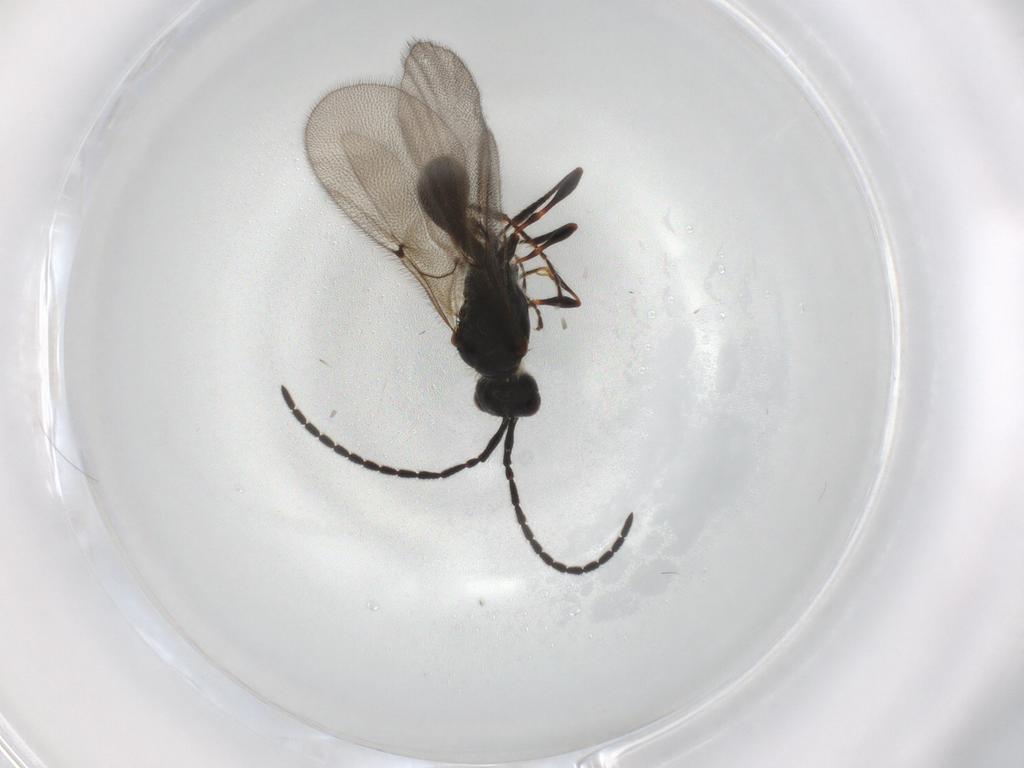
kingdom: Animalia
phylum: Arthropoda
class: Insecta
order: Hymenoptera
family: Diapriidae
